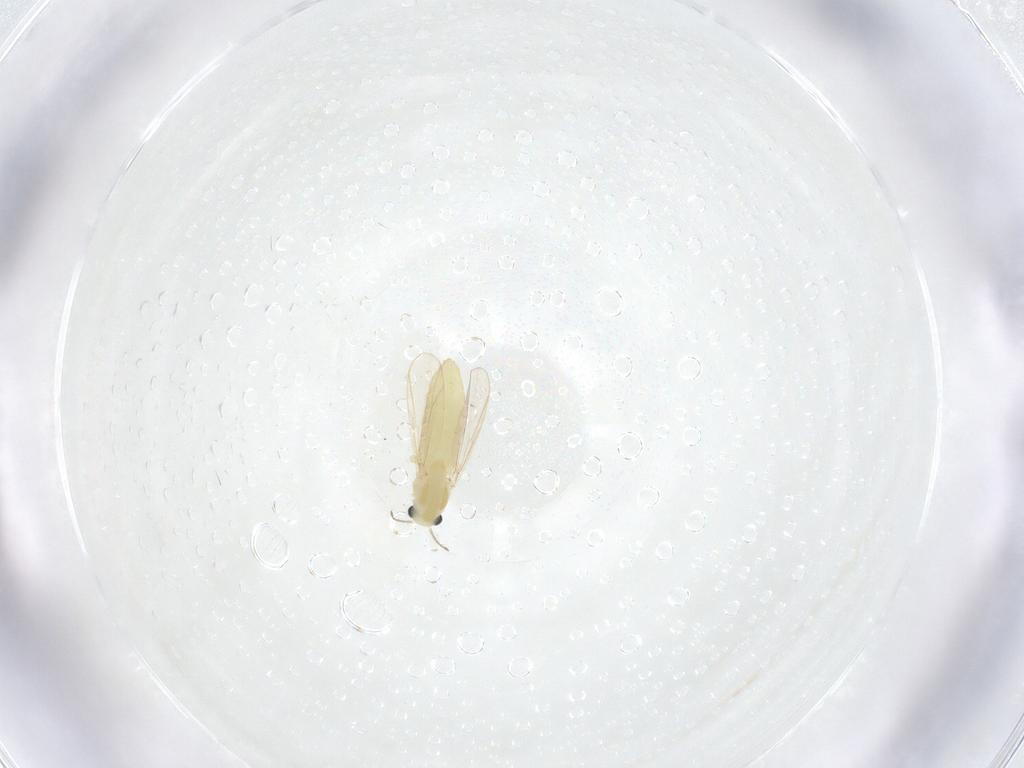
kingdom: Animalia
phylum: Arthropoda
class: Insecta
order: Diptera
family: Chironomidae
